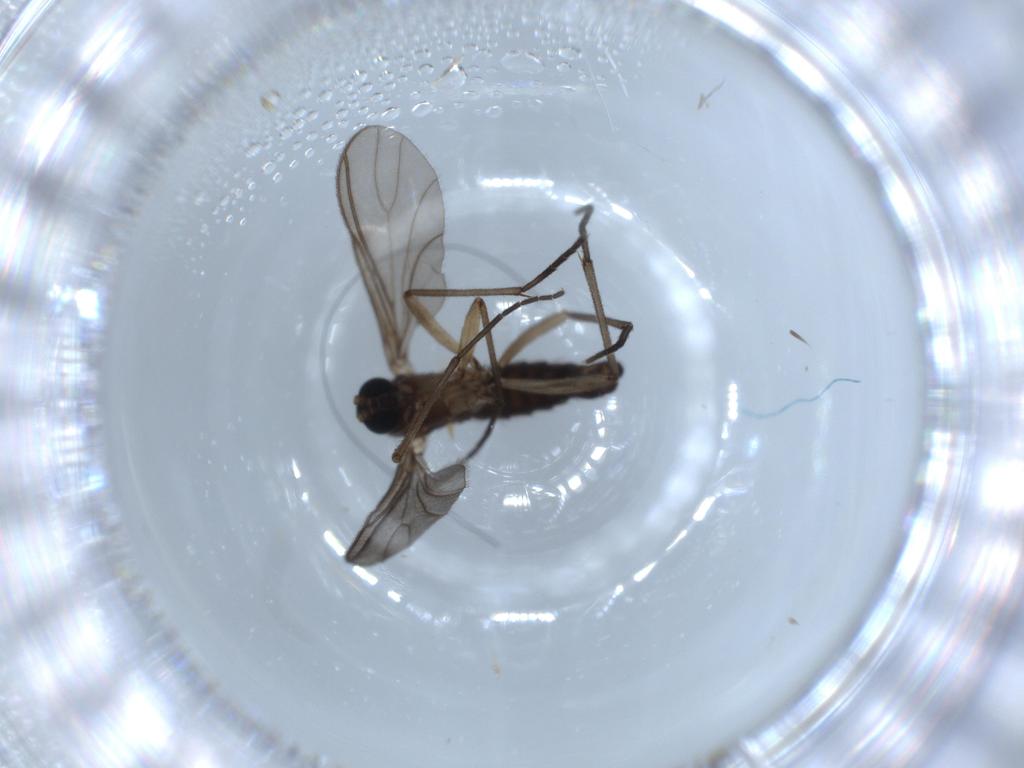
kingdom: Animalia
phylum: Arthropoda
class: Insecta
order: Diptera
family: Sciaridae
